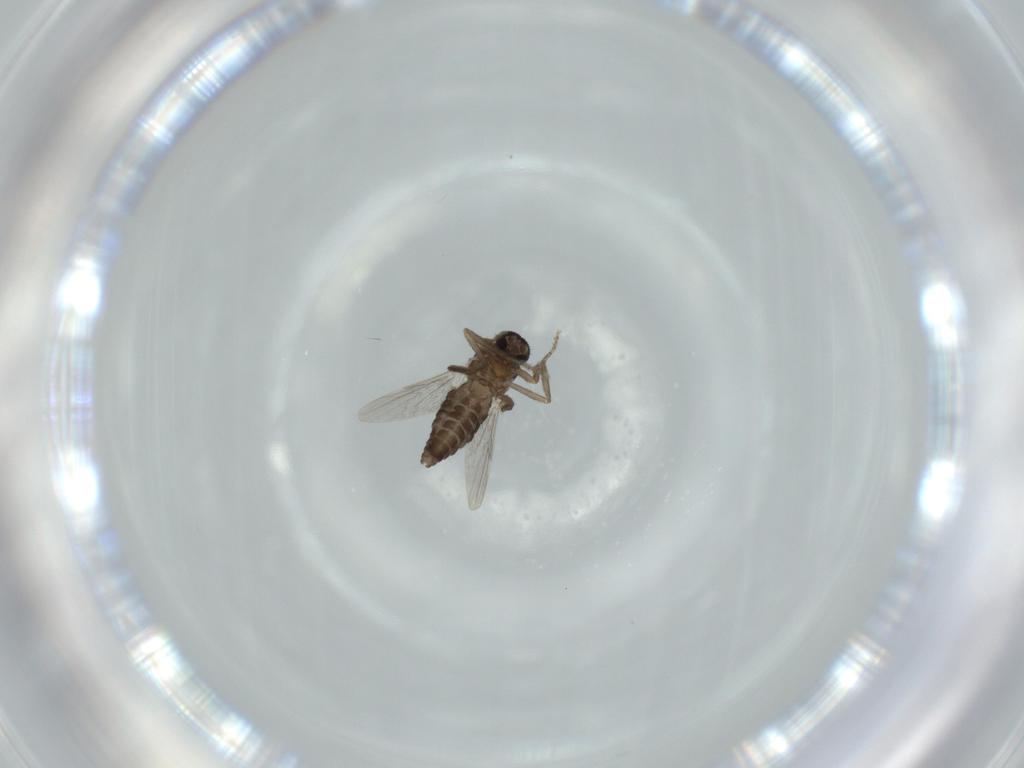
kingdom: Animalia
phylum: Arthropoda
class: Insecta
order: Diptera
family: Ceratopogonidae
